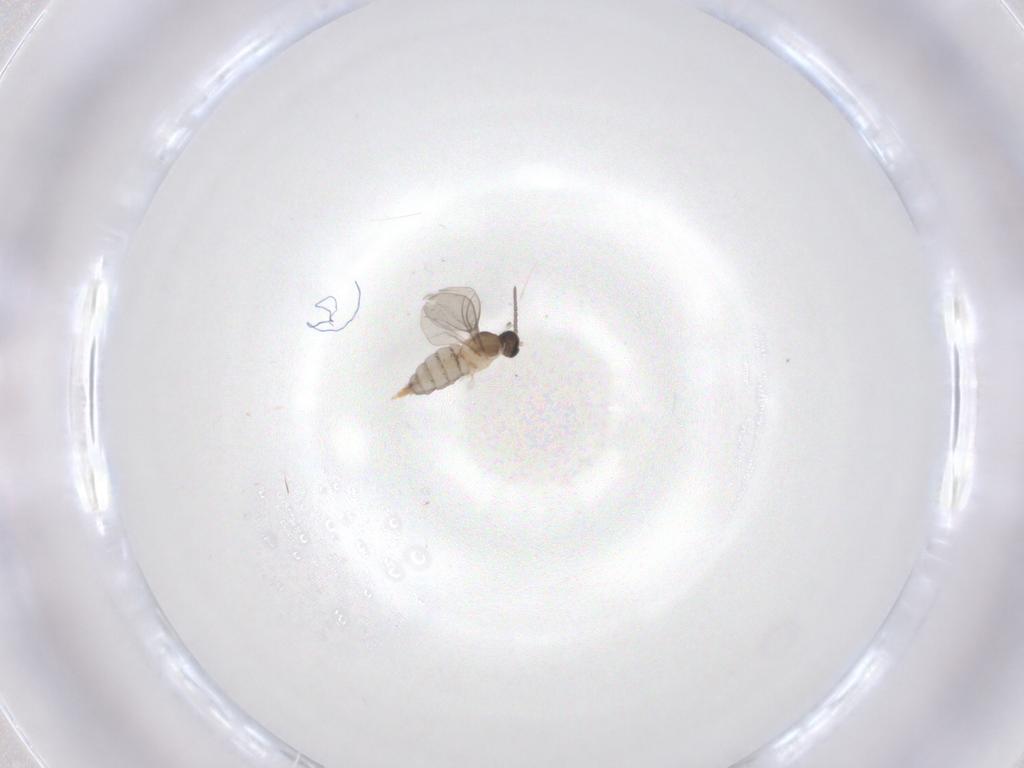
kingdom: Animalia
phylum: Arthropoda
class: Insecta
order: Diptera
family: Cecidomyiidae
